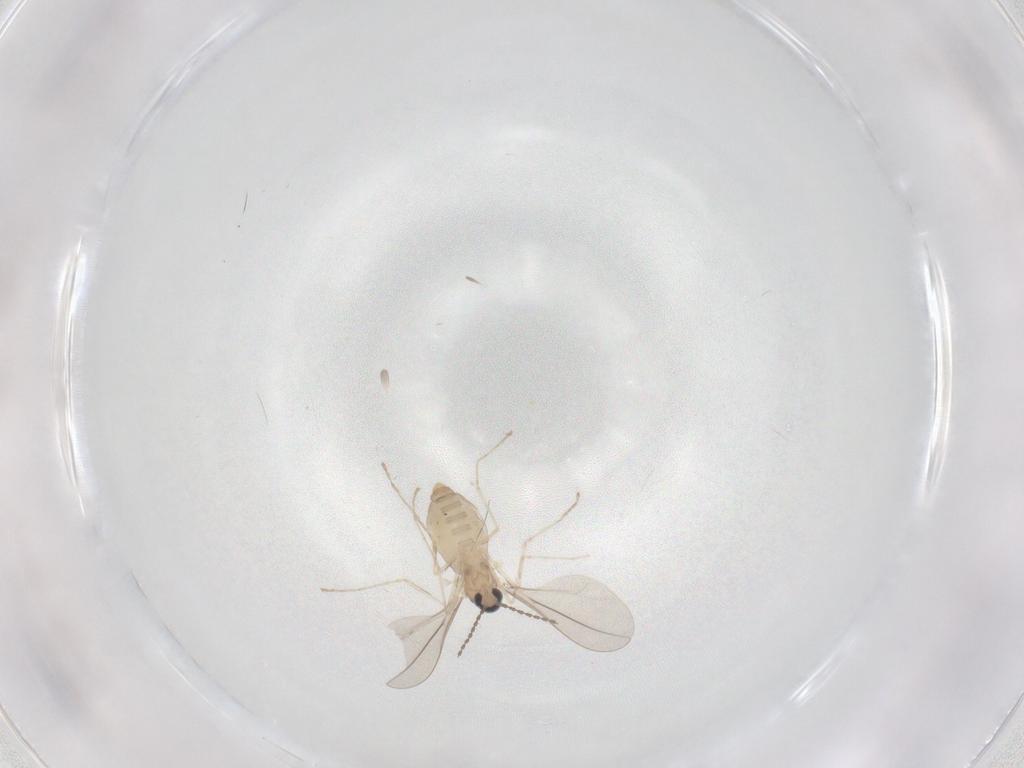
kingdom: Animalia
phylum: Arthropoda
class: Insecta
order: Diptera
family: Cecidomyiidae
